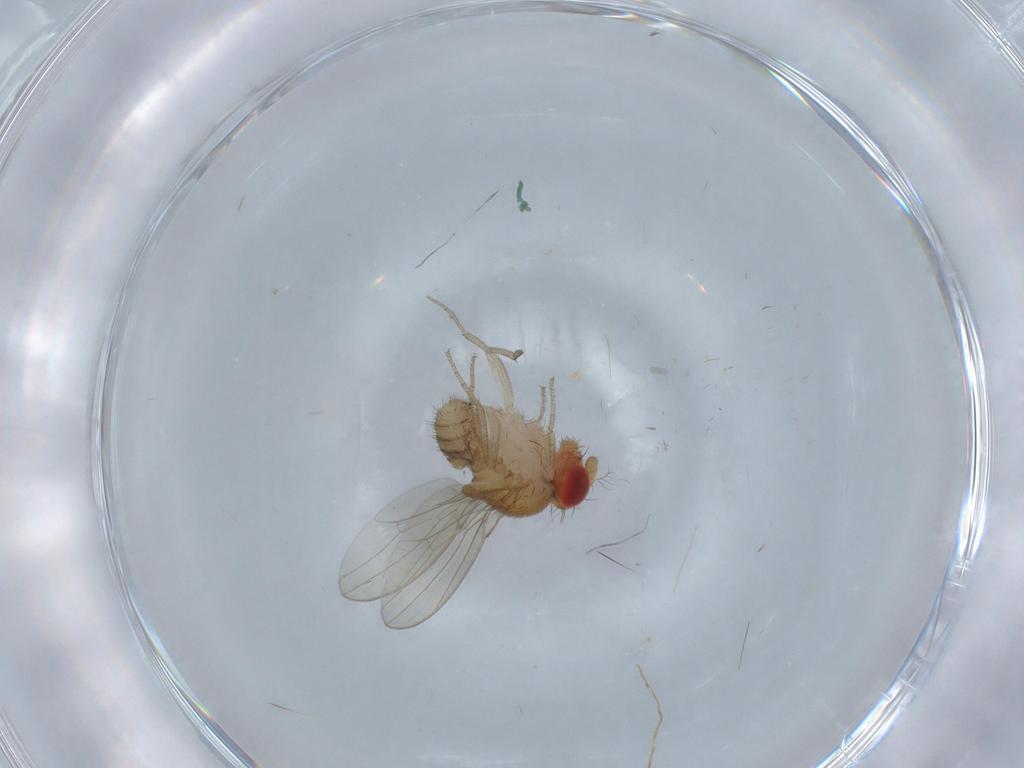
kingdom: Animalia
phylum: Arthropoda
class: Insecta
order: Diptera
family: Drosophilidae
